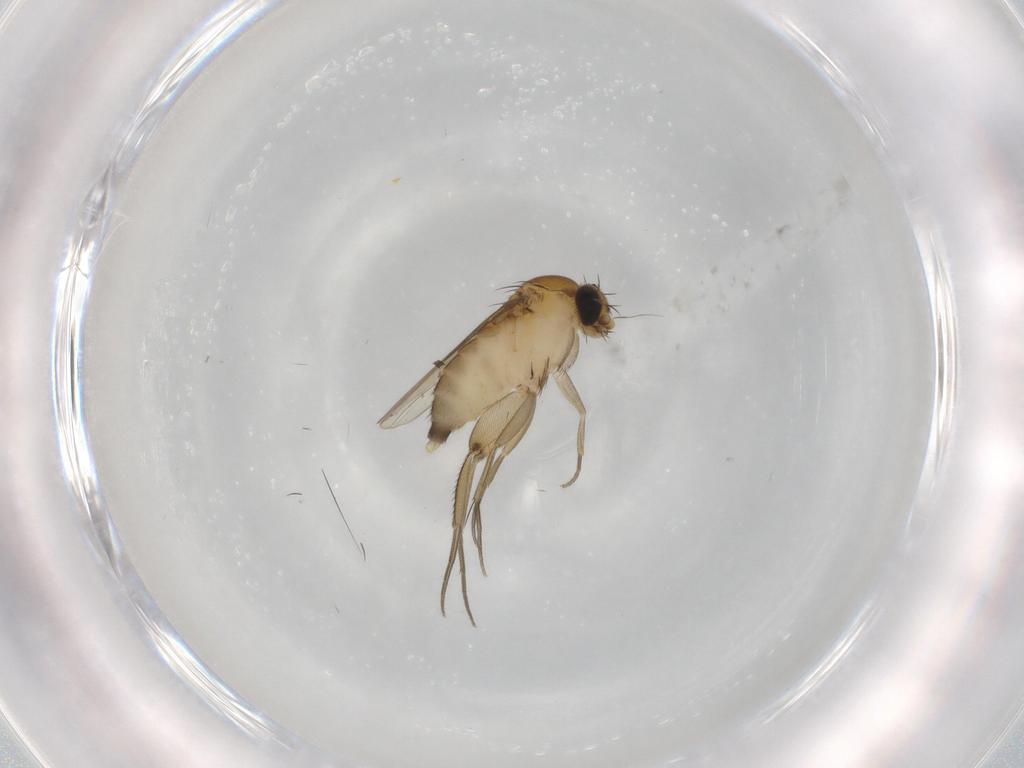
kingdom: Animalia
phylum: Arthropoda
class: Insecta
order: Diptera
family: Phoridae
